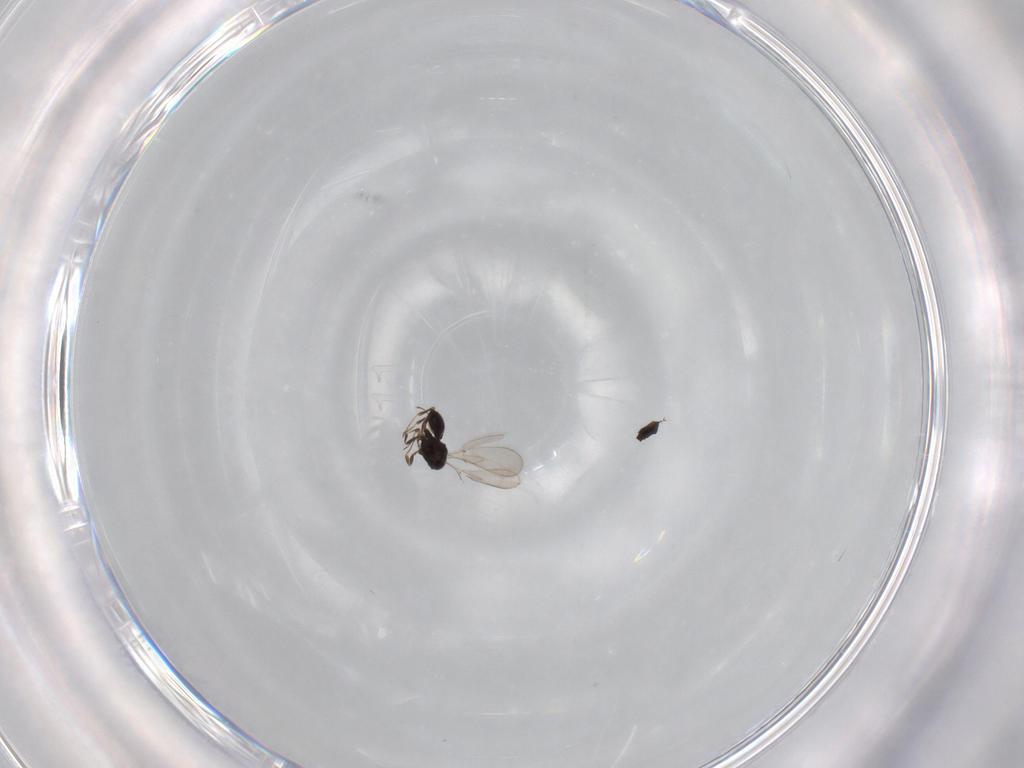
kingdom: Animalia
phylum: Arthropoda
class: Insecta
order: Hymenoptera
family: Scelionidae
